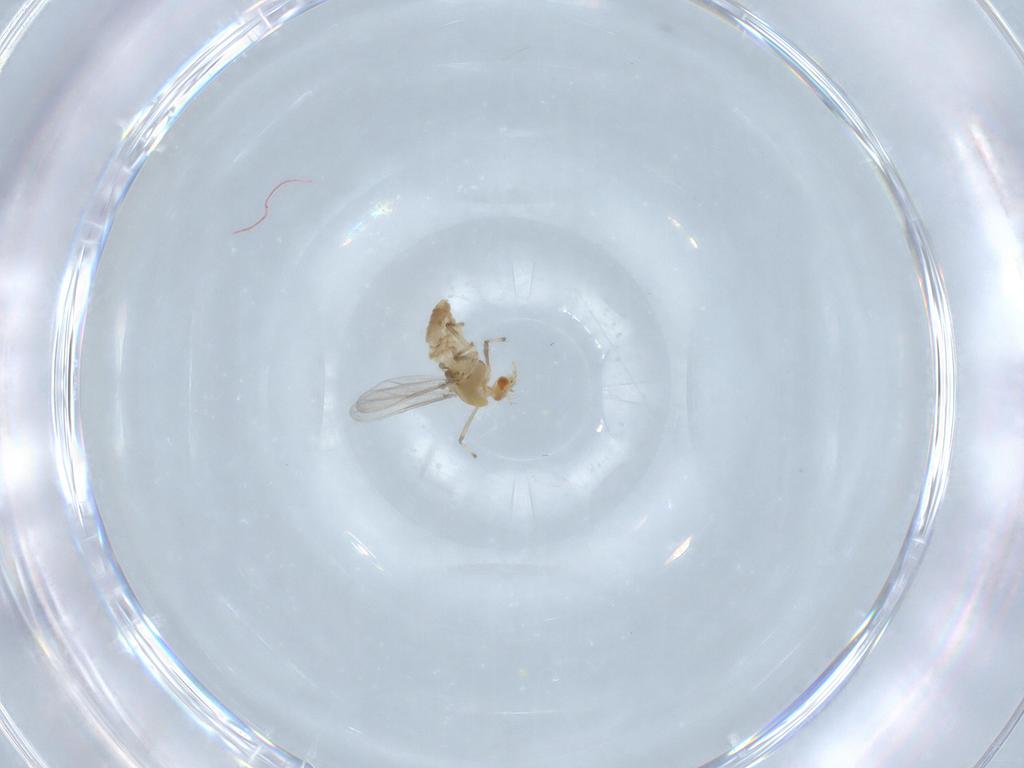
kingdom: Animalia
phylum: Arthropoda
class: Insecta
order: Diptera
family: Chironomidae
